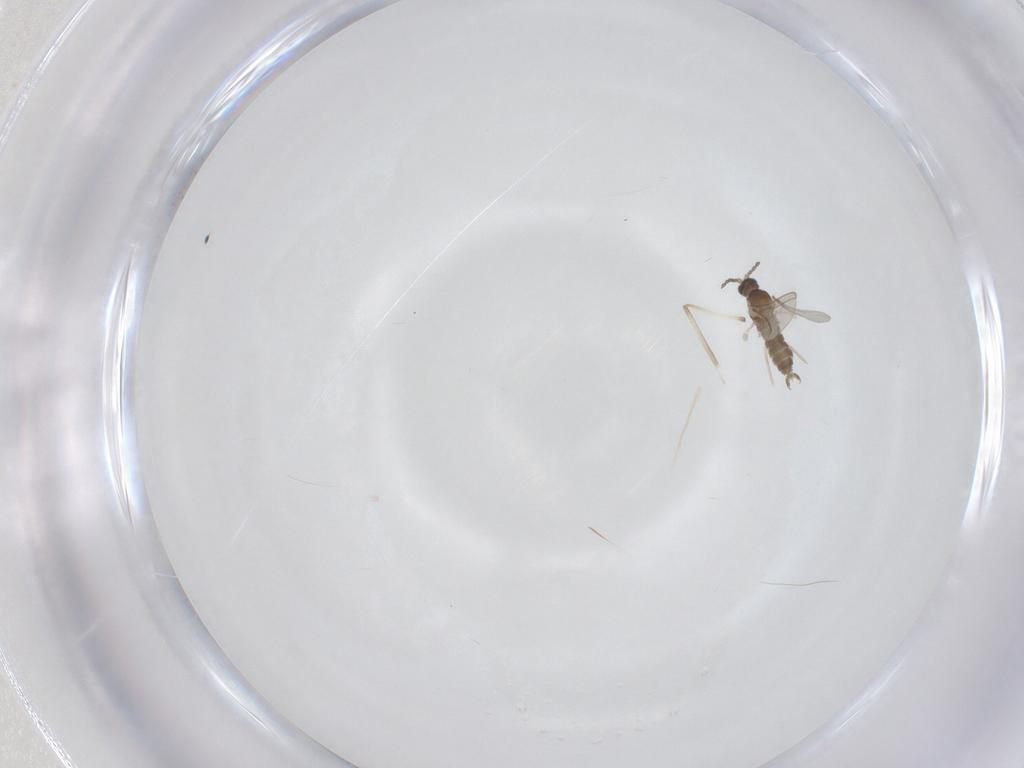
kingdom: Animalia
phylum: Arthropoda
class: Insecta
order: Diptera
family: Cecidomyiidae
